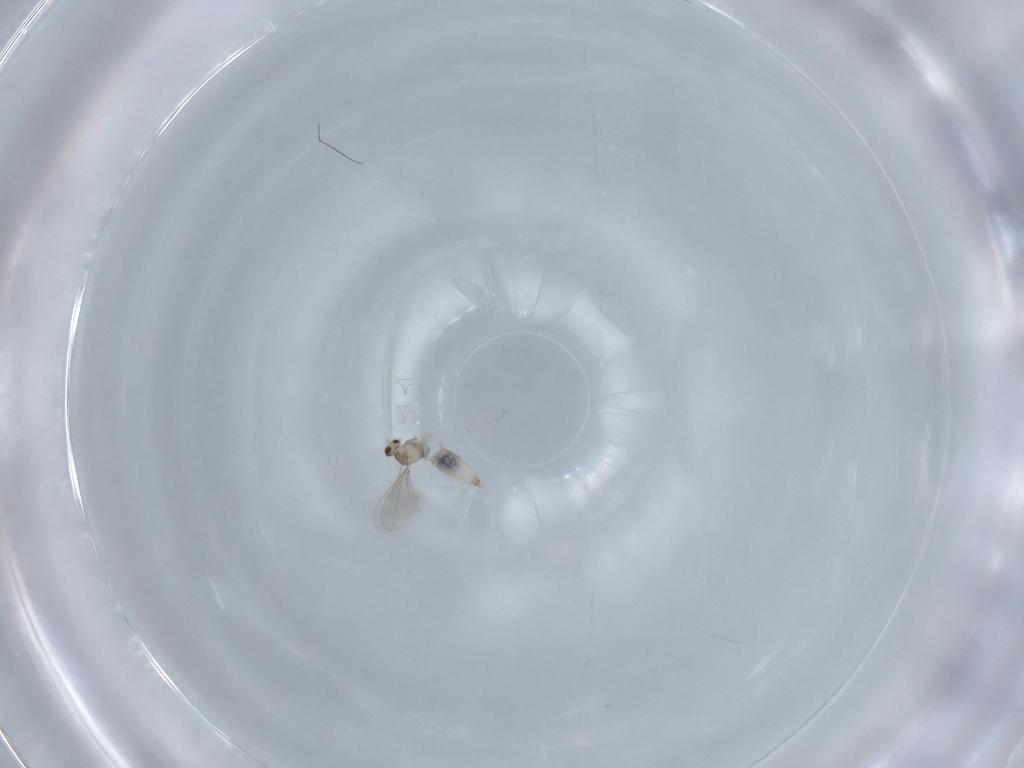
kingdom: Animalia
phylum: Arthropoda
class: Insecta
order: Diptera
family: Cecidomyiidae
